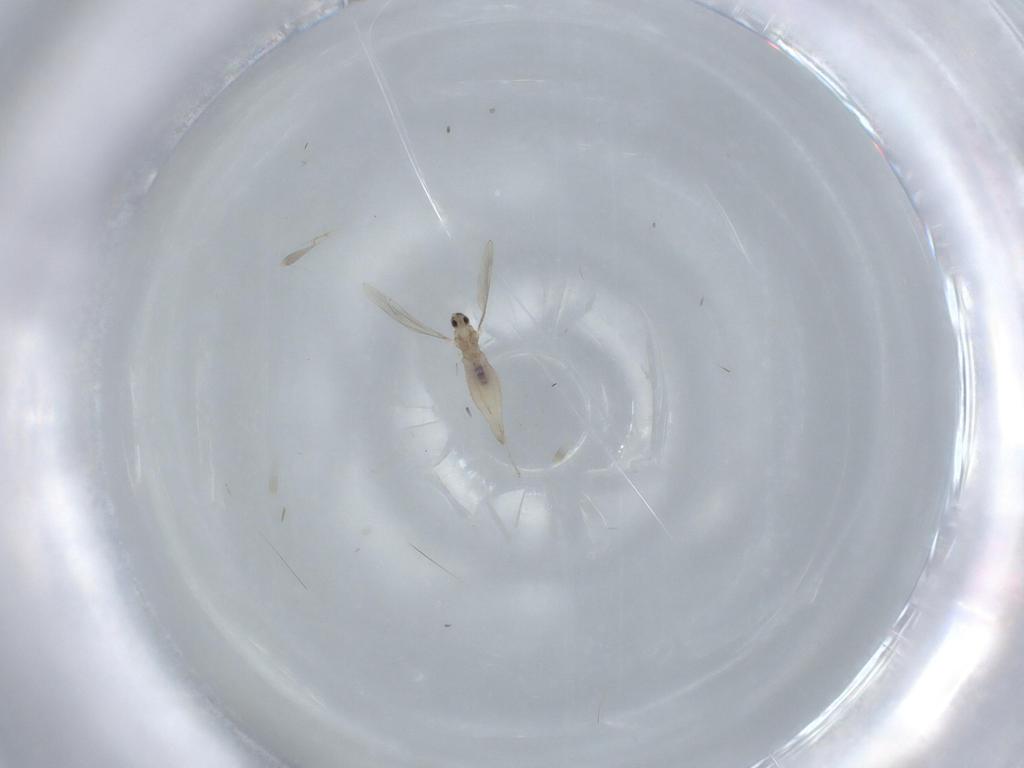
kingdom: Animalia
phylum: Arthropoda
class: Insecta
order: Diptera
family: Cecidomyiidae
